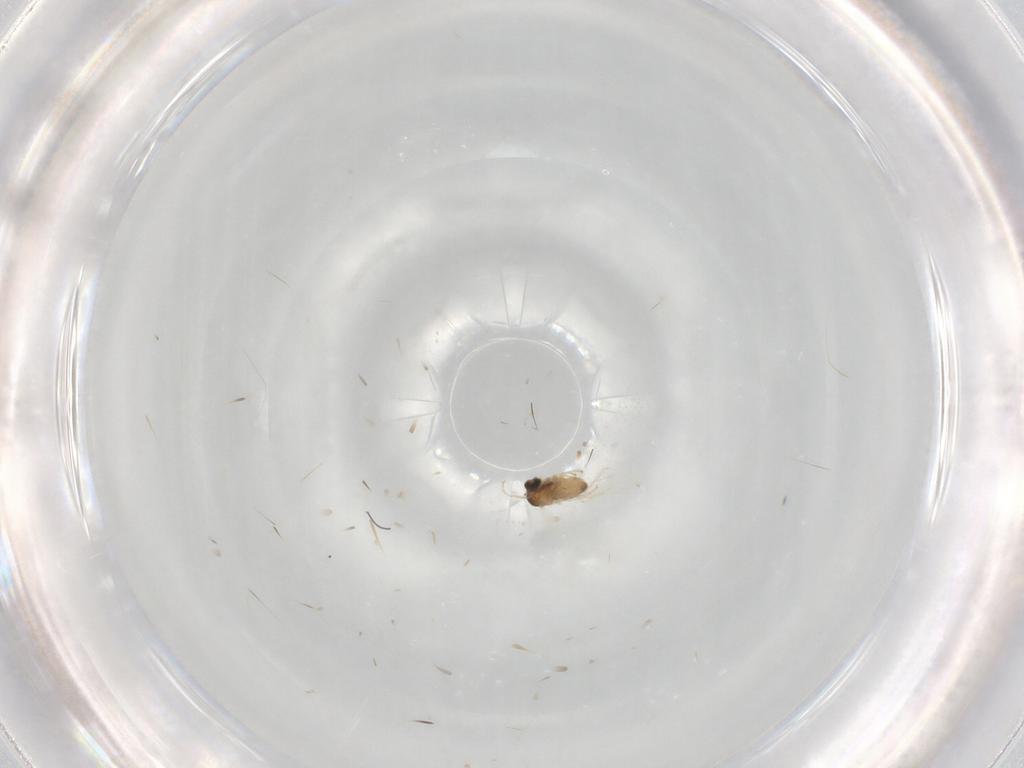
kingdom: Animalia
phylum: Arthropoda
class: Insecta
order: Diptera
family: Cecidomyiidae
